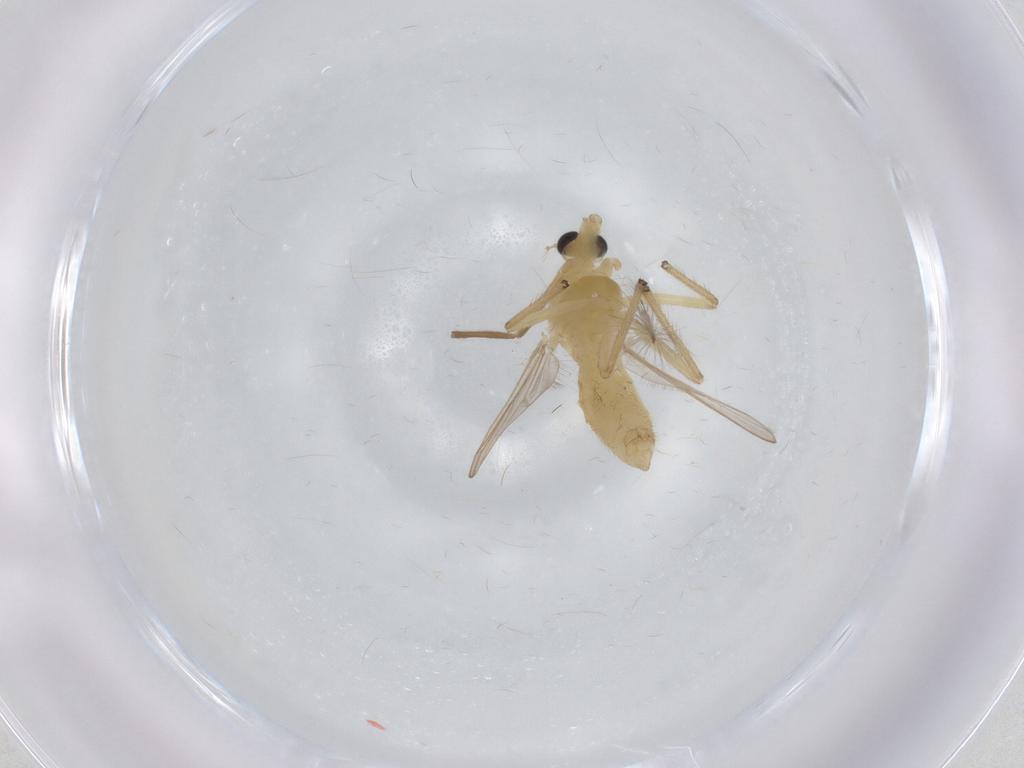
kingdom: Animalia
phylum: Arthropoda
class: Insecta
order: Diptera
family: Chironomidae
